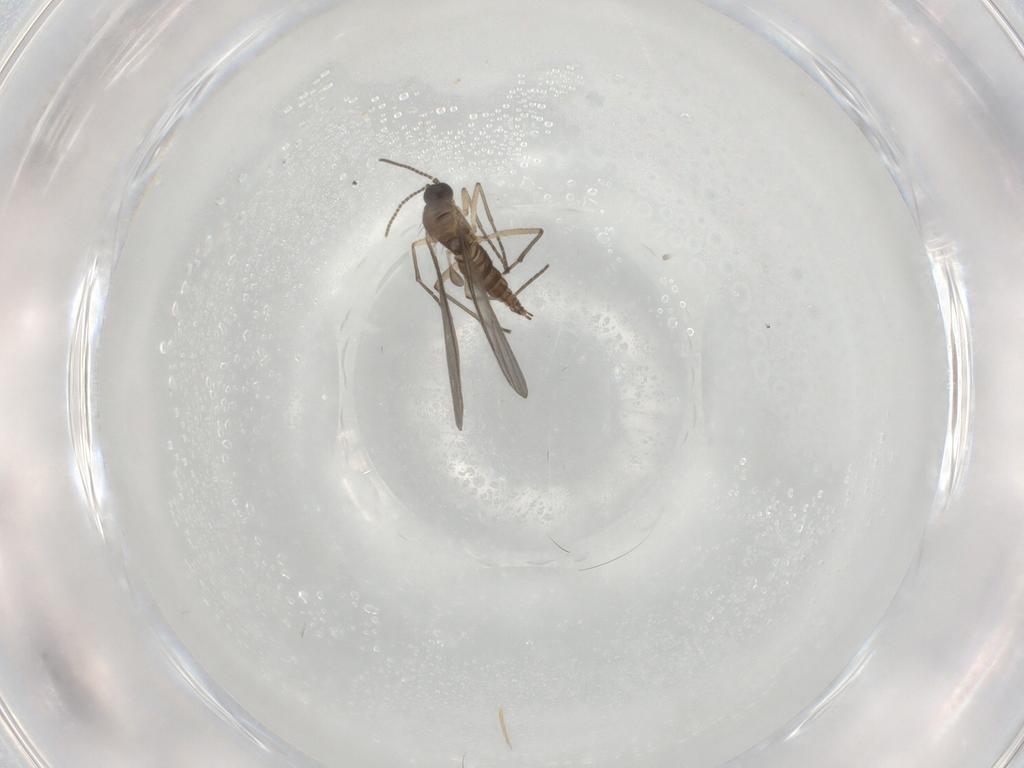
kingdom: Animalia
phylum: Arthropoda
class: Insecta
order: Diptera
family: Sciaridae
